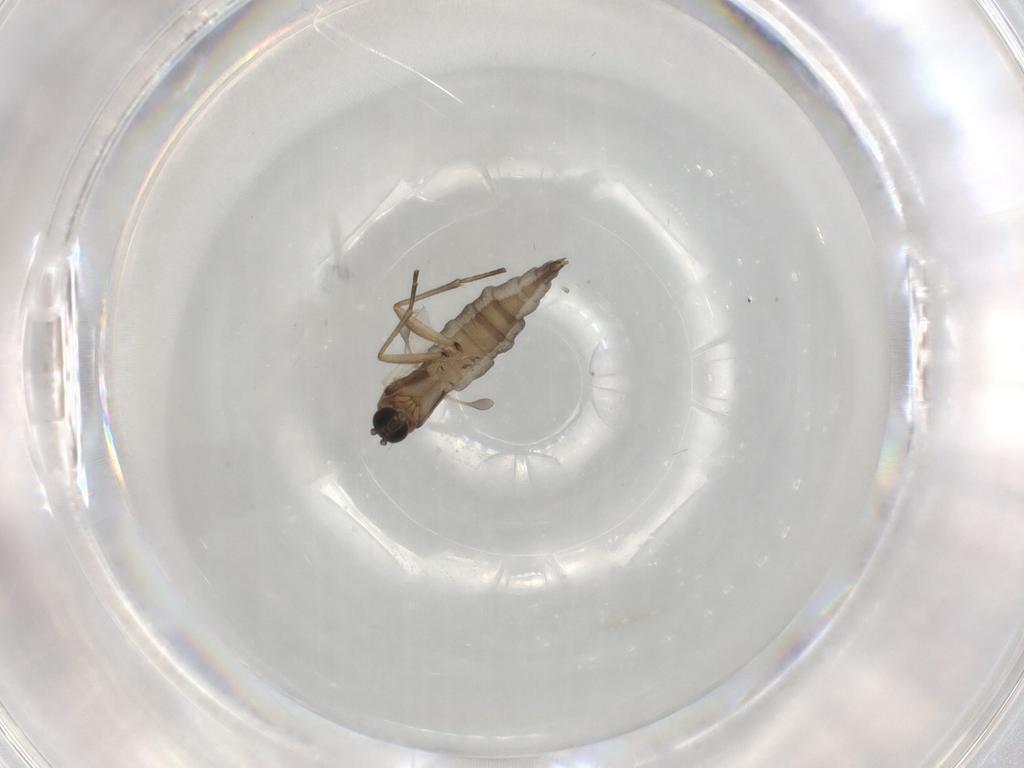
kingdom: Animalia
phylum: Arthropoda
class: Insecta
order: Diptera
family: Sciaridae
